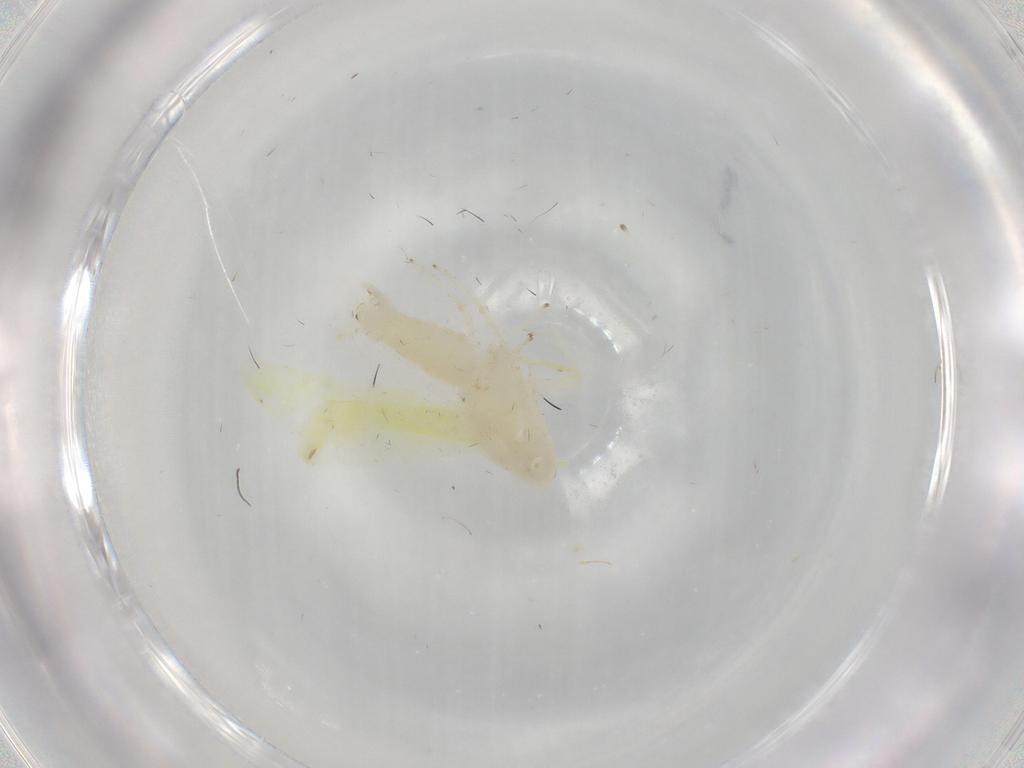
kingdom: Animalia
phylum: Arthropoda
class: Insecta
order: Hemiptera
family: Cicadellidae
